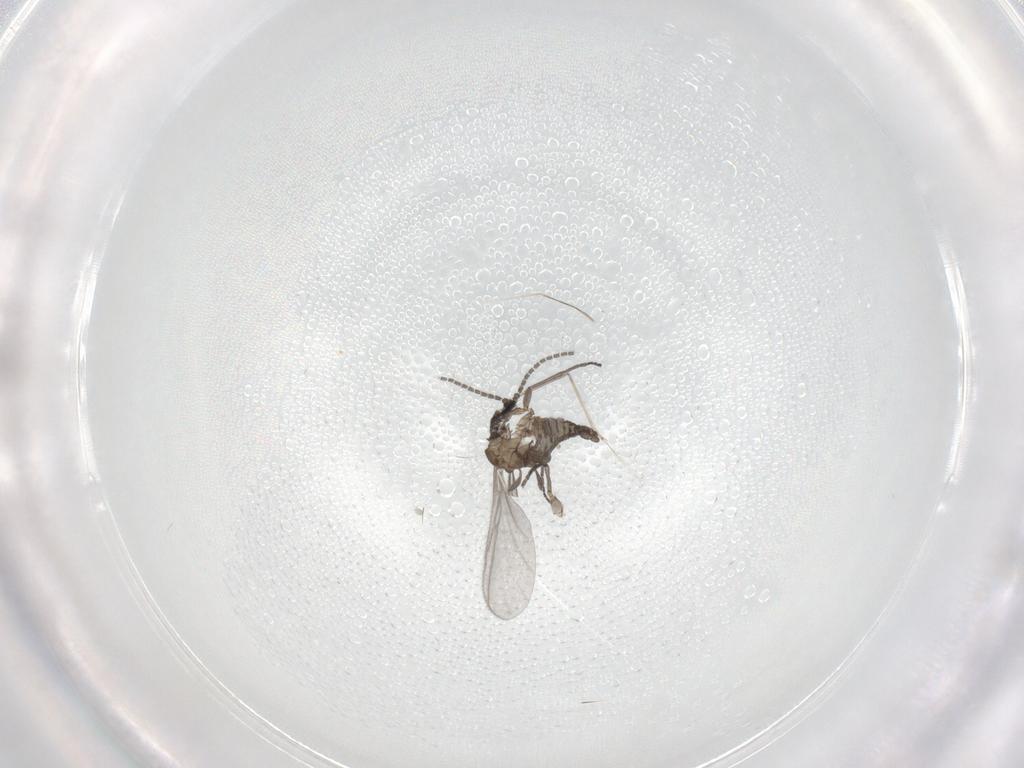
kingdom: Animalia
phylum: Arthropoda
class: Insecta
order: Diptera
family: Sciaridae
